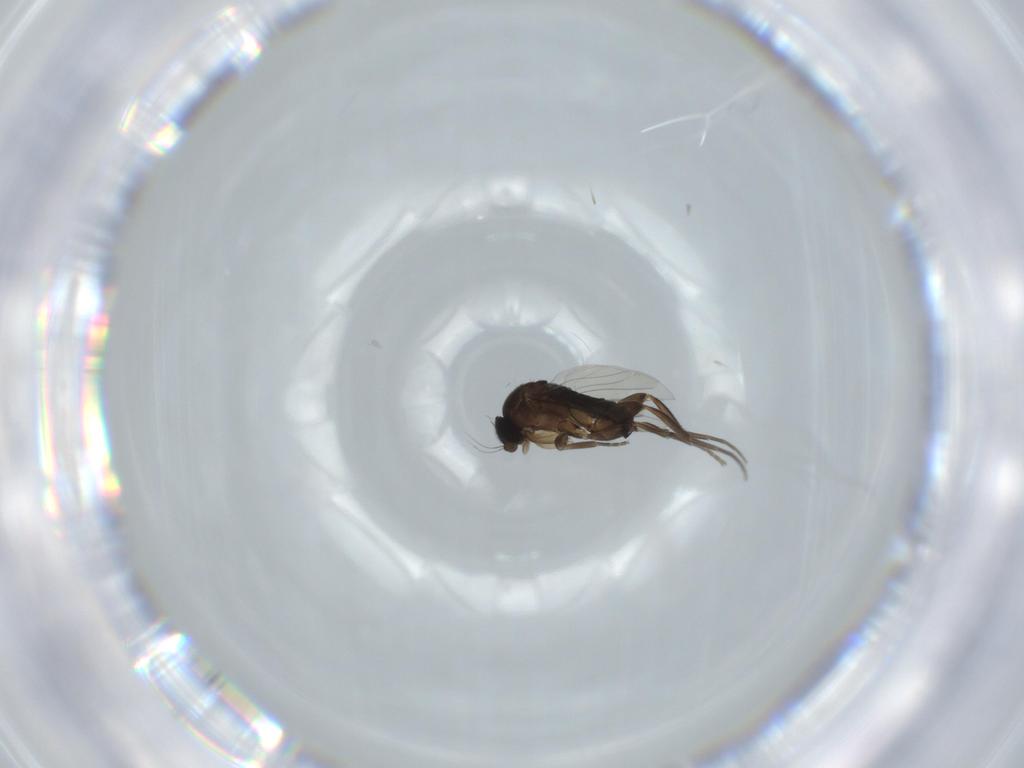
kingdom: Animalia
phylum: Arthropoda
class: Insecta
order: Diptera
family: Phoridae
